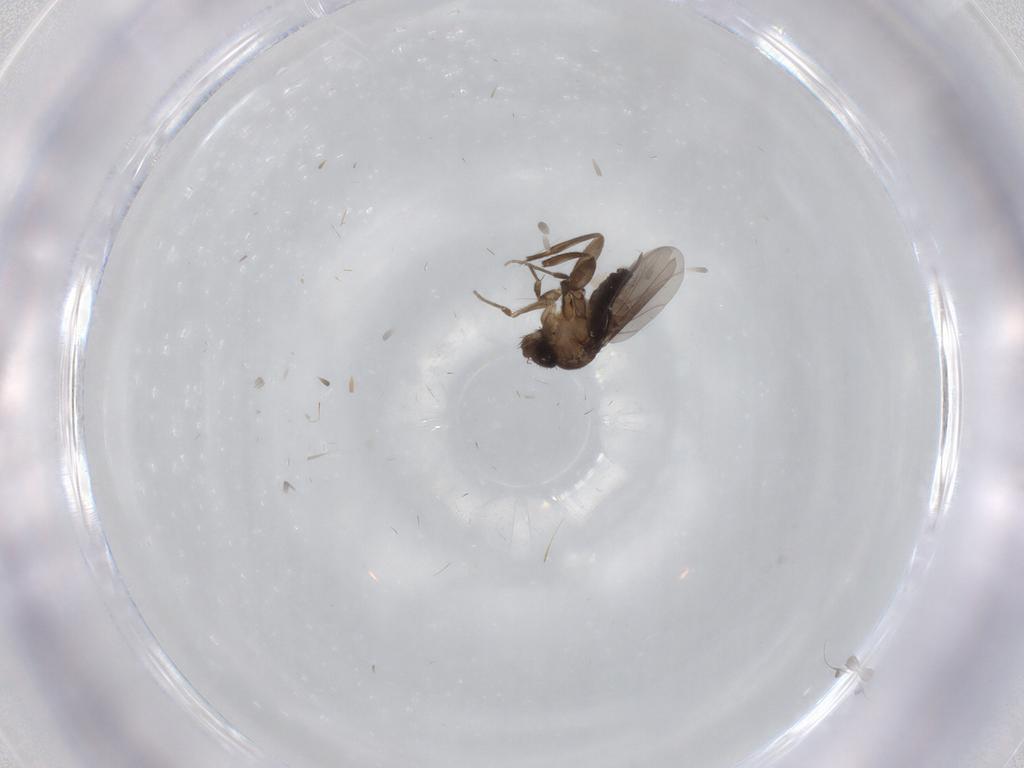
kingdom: Animalia
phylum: Arthropoda
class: Insecta
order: Diptera
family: Phoridae
